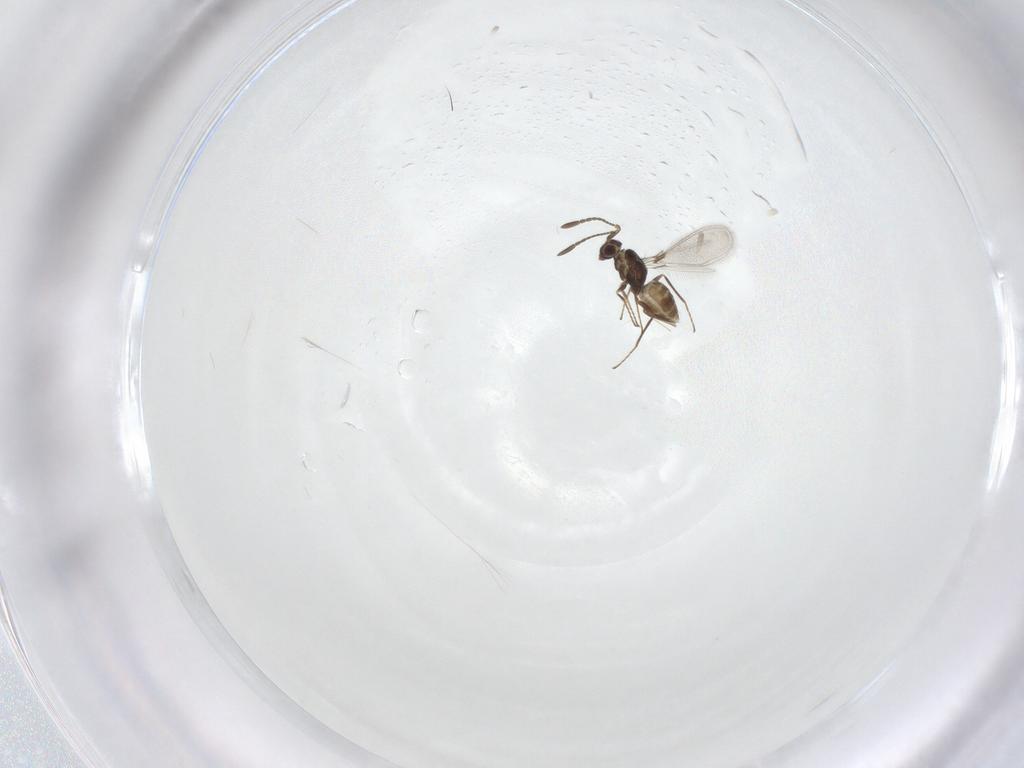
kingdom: Animalia
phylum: Arthropoda
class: Insecta
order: Hymenoptera
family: Mymaridae
